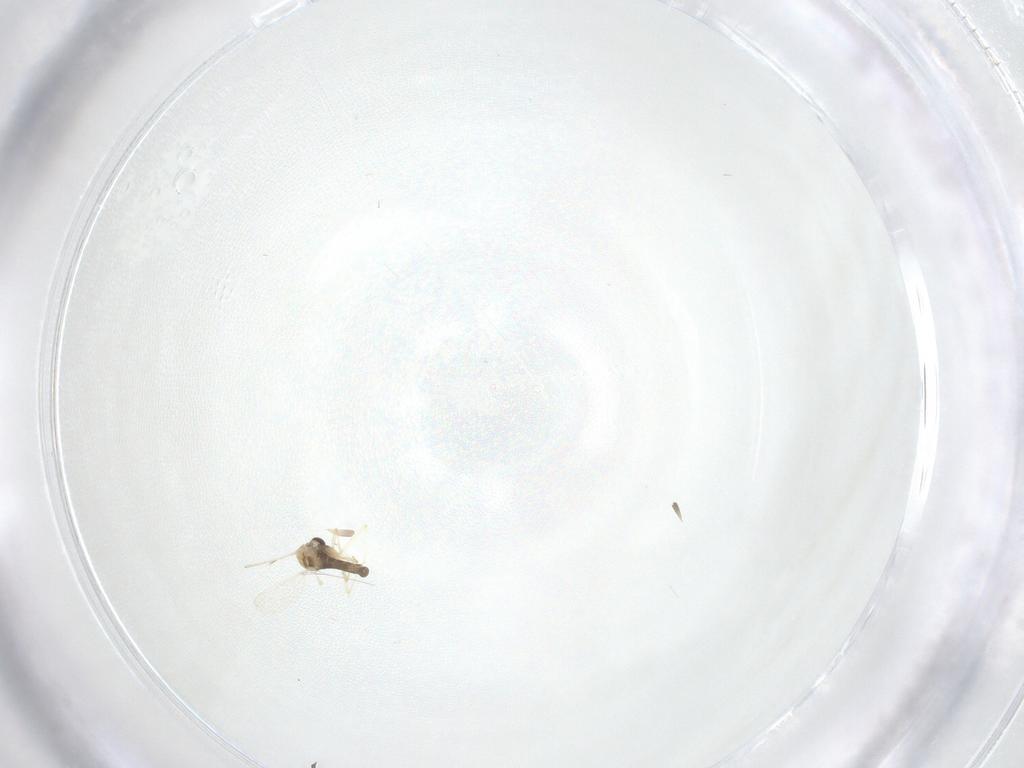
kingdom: Animalia
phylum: Arthropoda
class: Insecta
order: Diptera
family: Chironomidae
